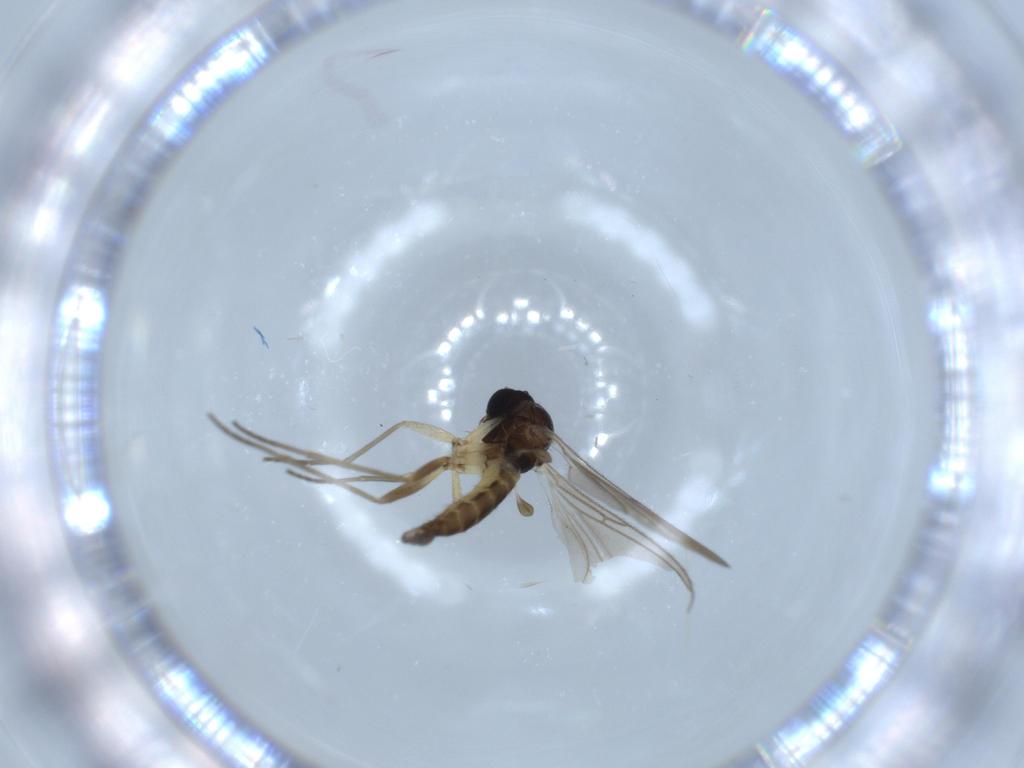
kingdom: Animalia
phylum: Arthropoda
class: Insecta
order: Diptera
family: Sciaridae
